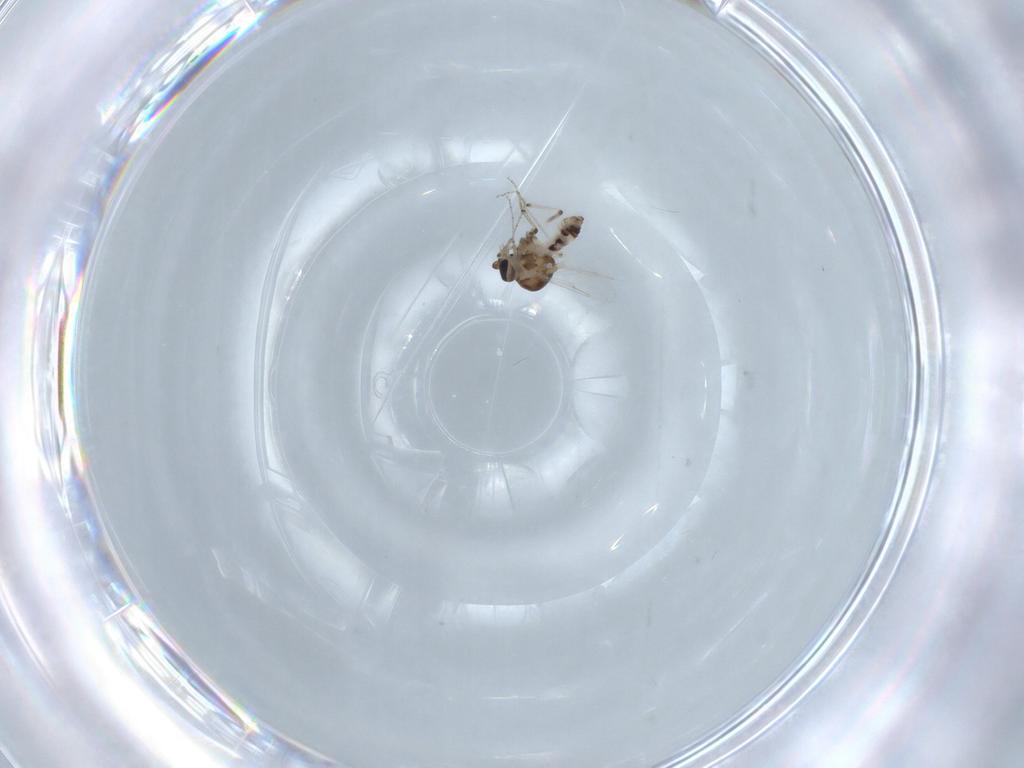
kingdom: Animalia
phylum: Arthropoda
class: Insecta
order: Diptera
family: Ceratopogonidae
